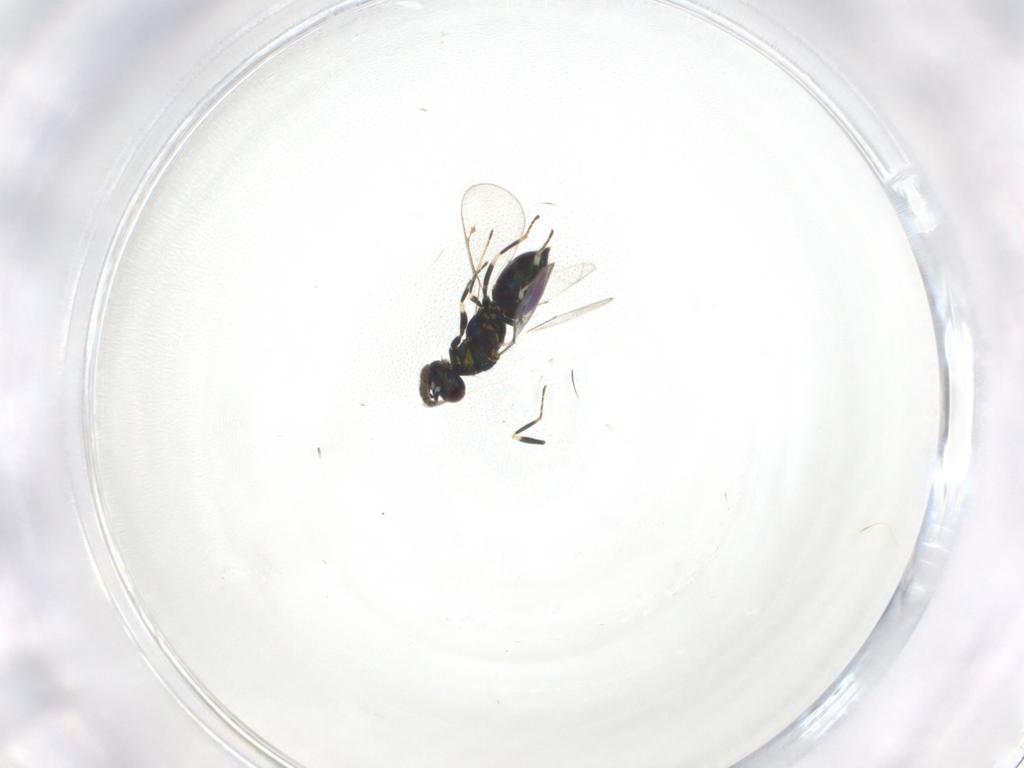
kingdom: Animalia
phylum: Arthropoda
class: Insecta
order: Hymenoptera
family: Eulophidae
